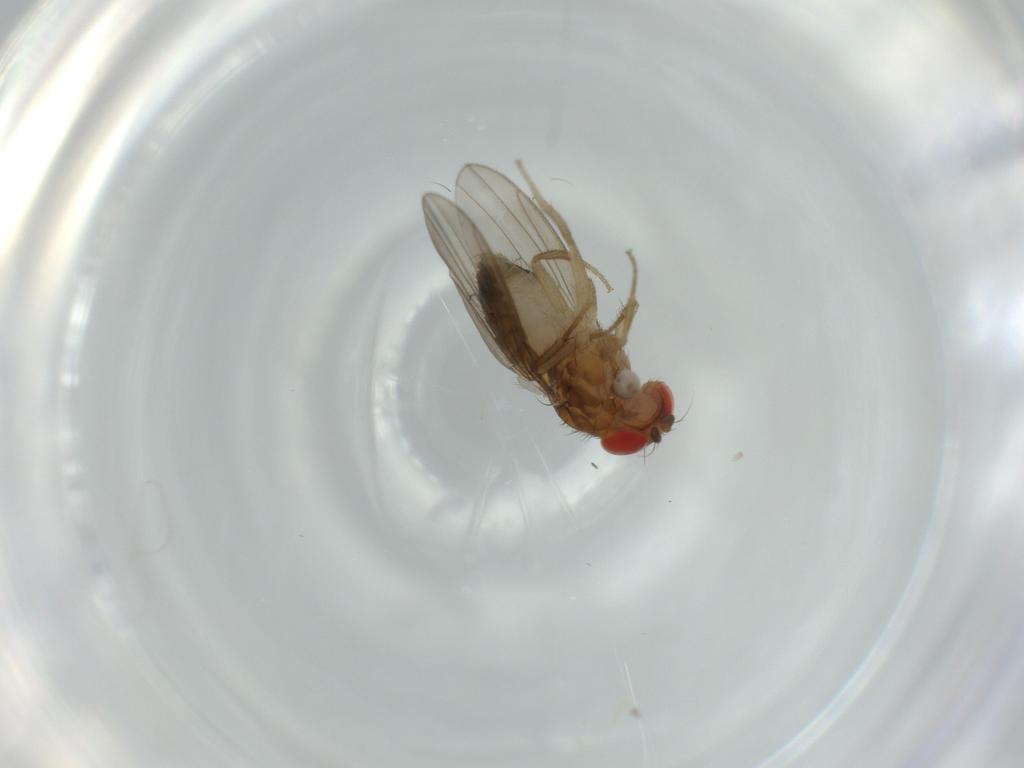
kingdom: Animalia
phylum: Arthropoda
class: Insecta
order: Diptera
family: Drosophilidae
